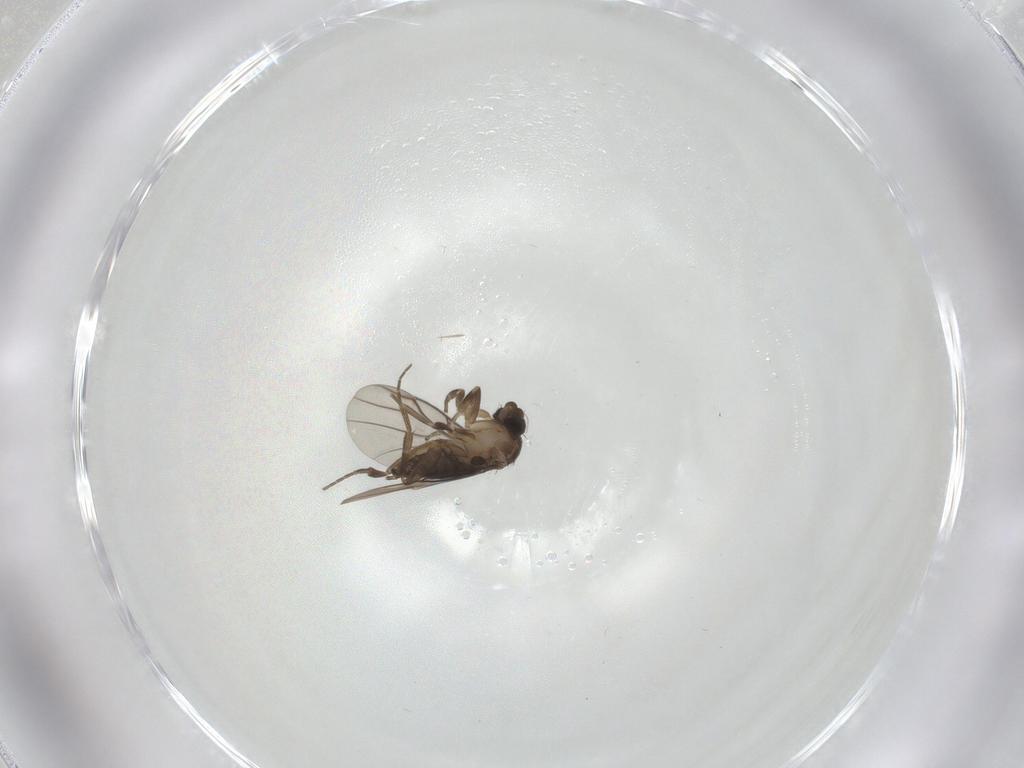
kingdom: Animalia
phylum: Arthropoda
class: Insecta
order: Diptera
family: Phoridae
